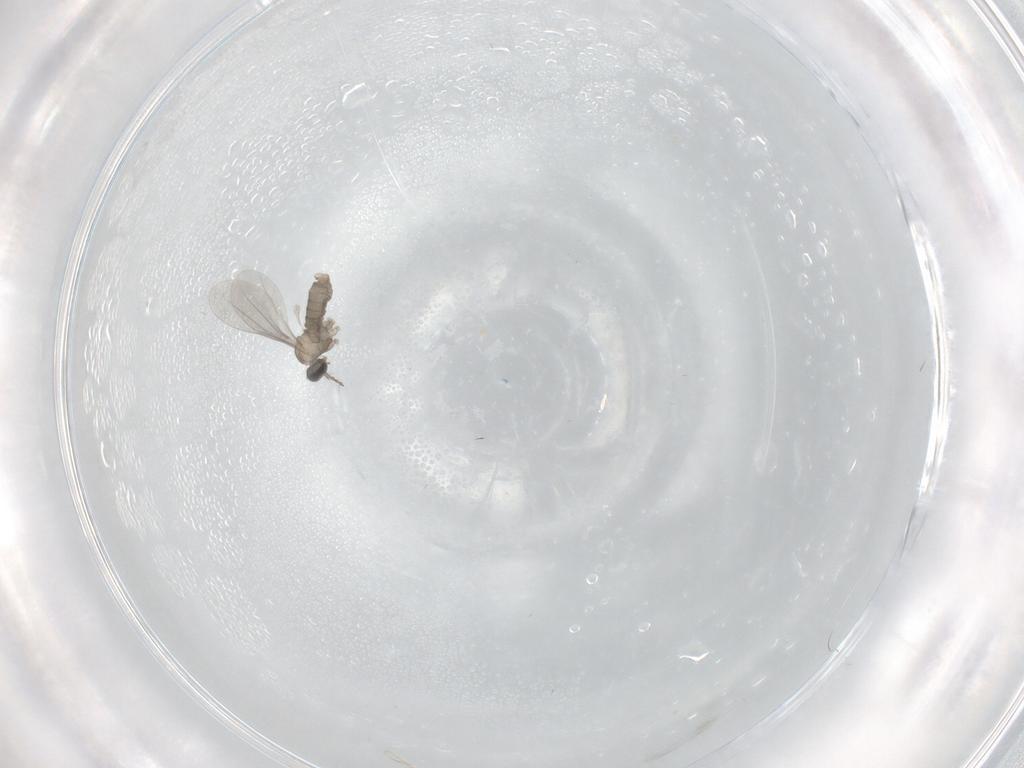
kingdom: Animalia
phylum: Arthropoda
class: Insecta
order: Diptera
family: Cecidomyiidae
